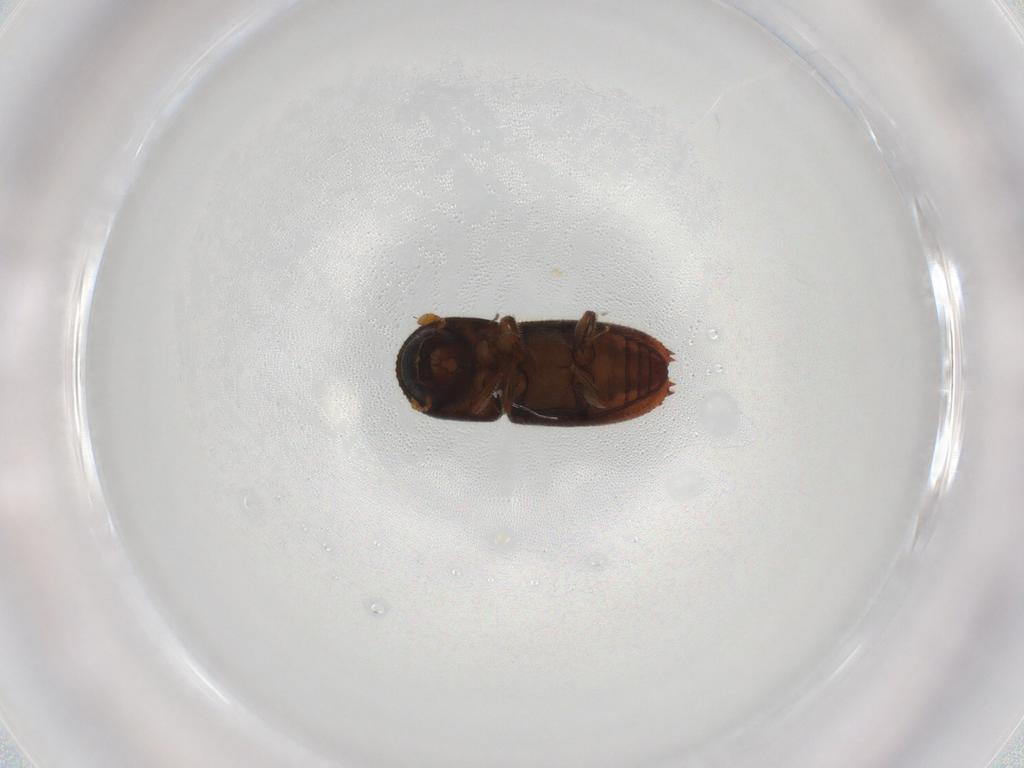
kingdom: Animalia
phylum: Arthropoda
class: Insecta
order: Coleoptera
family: Curculionidae
